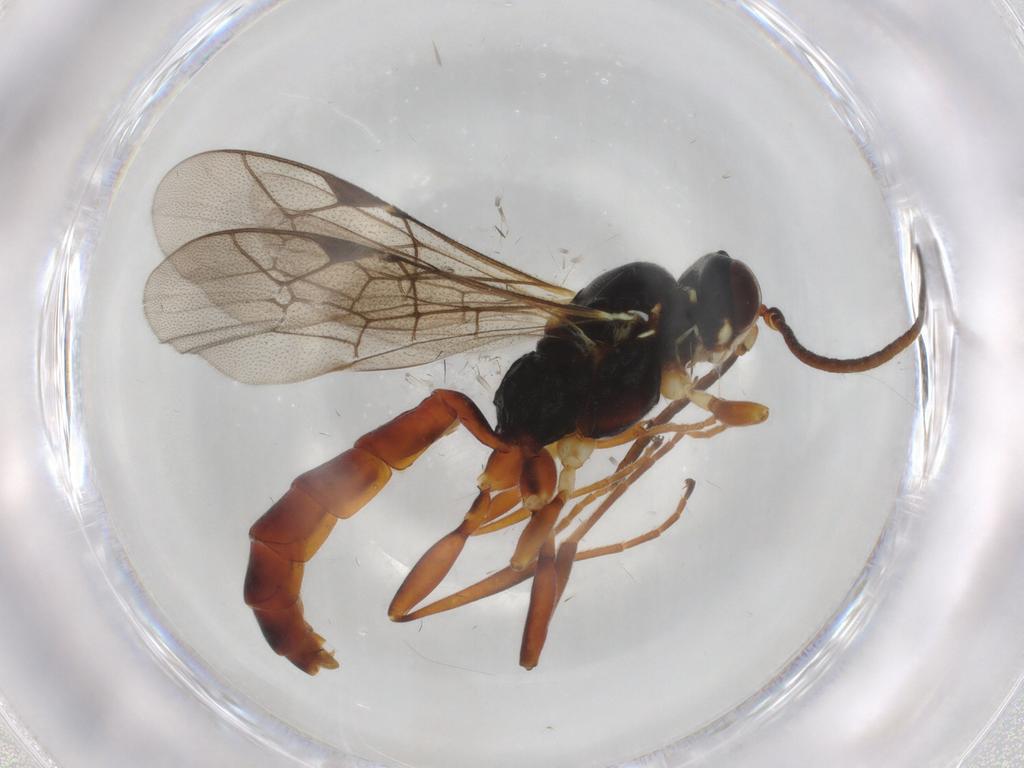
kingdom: Animalia
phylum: Arthropoda
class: Insecta
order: Hymenoptera
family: Ichneumonidae
